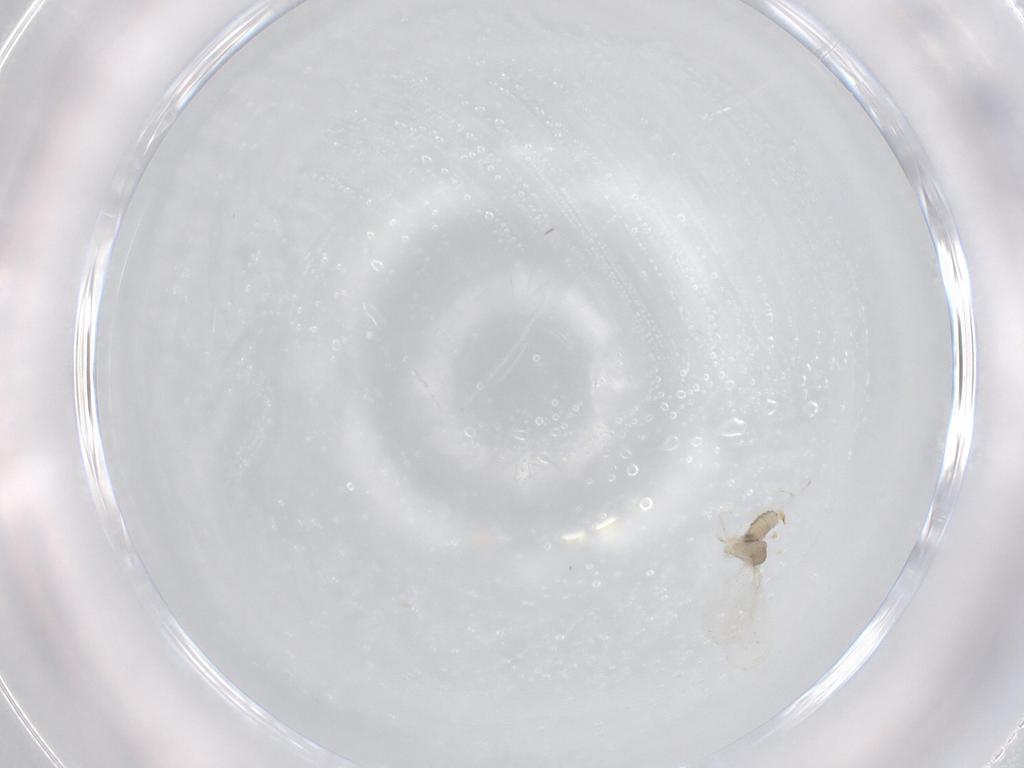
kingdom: Animalia
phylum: Arthropoda
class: Insecta
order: Diptera
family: Cecidomyiidae
